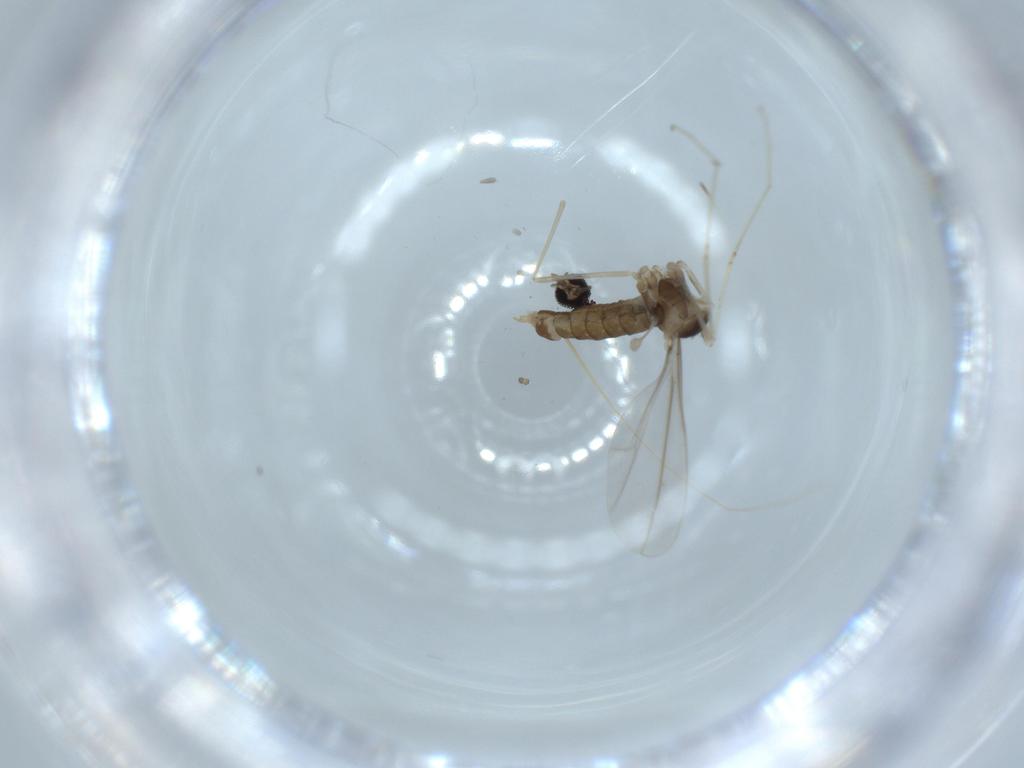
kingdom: Animalia
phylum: Arthropoda
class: Insecta
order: Diptera
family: Cecidomyiidae
